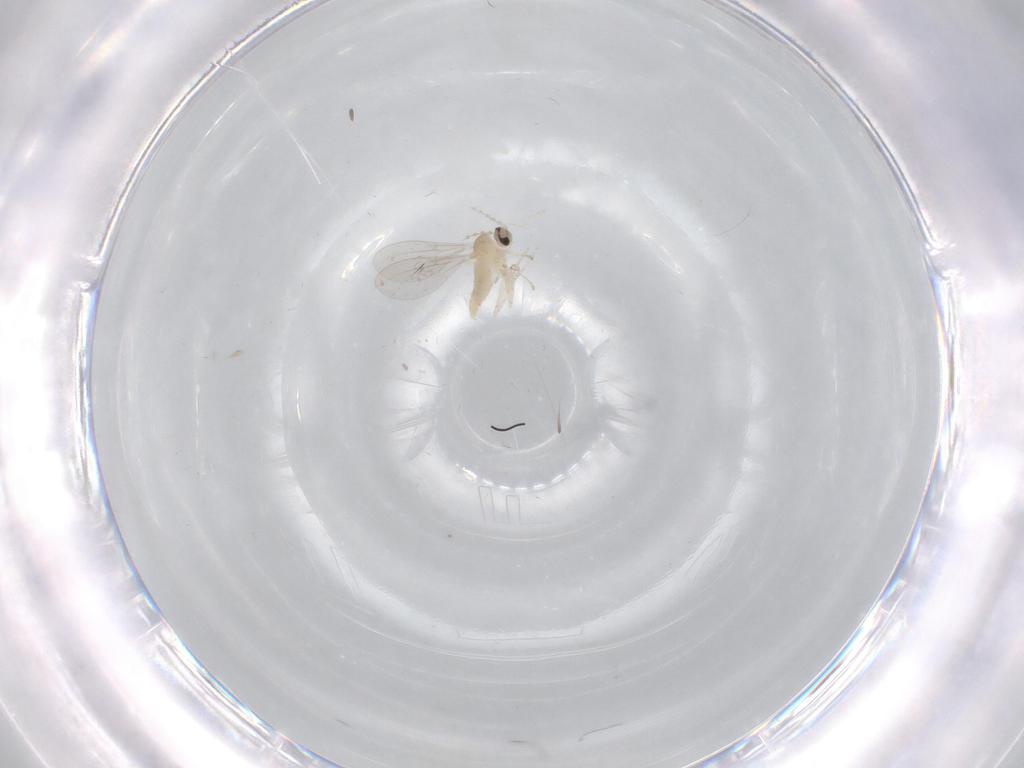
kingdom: Animalia
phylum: Arthropoda
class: Insecta
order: Diptera
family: Cecidomyiidae
